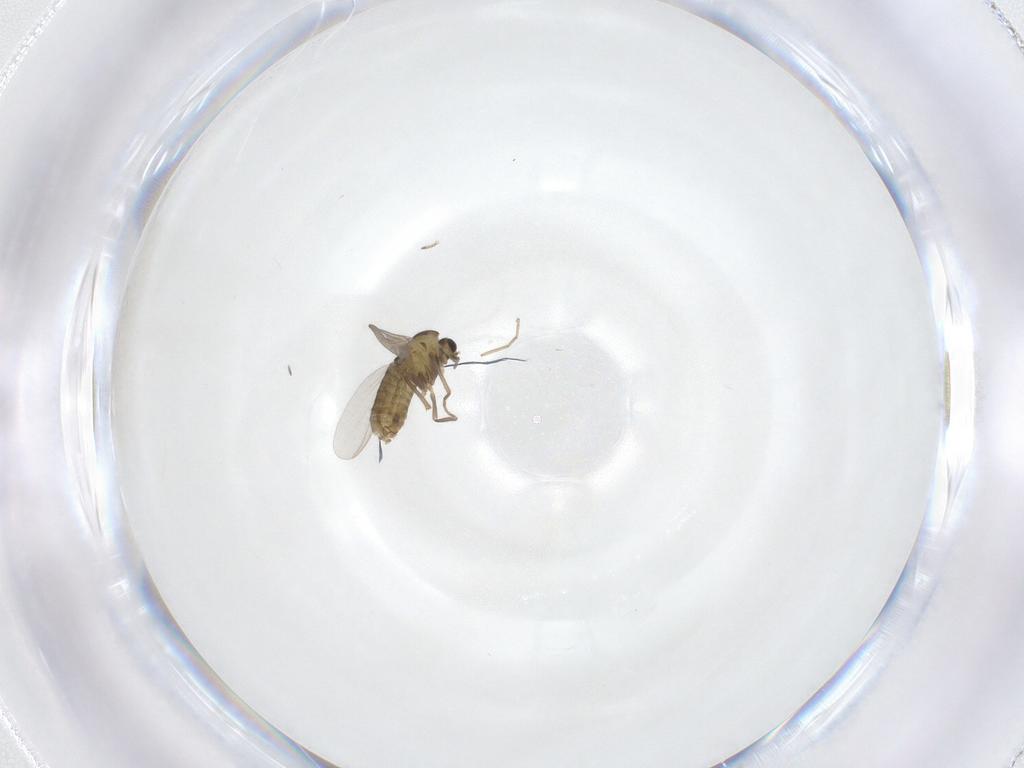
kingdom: Animalia
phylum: Arthropoda
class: Insecta
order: Diptera
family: Chironomidae
